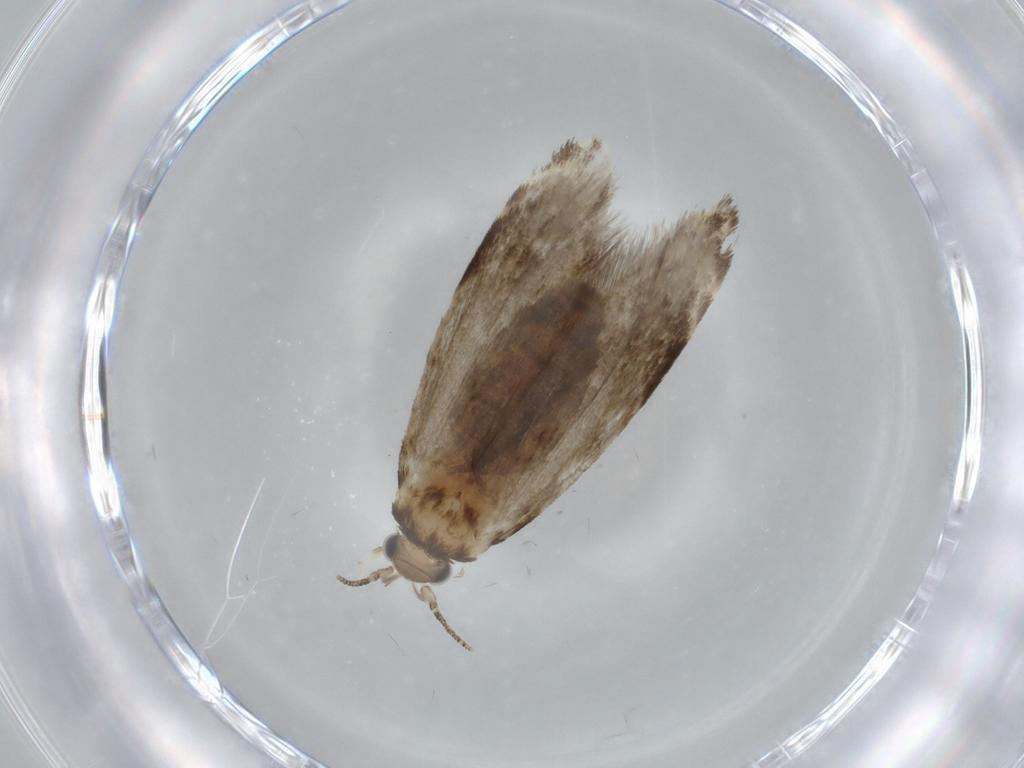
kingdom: Animalia
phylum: Arthropoda
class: Insecta
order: Lepidoptera
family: Tineidae
